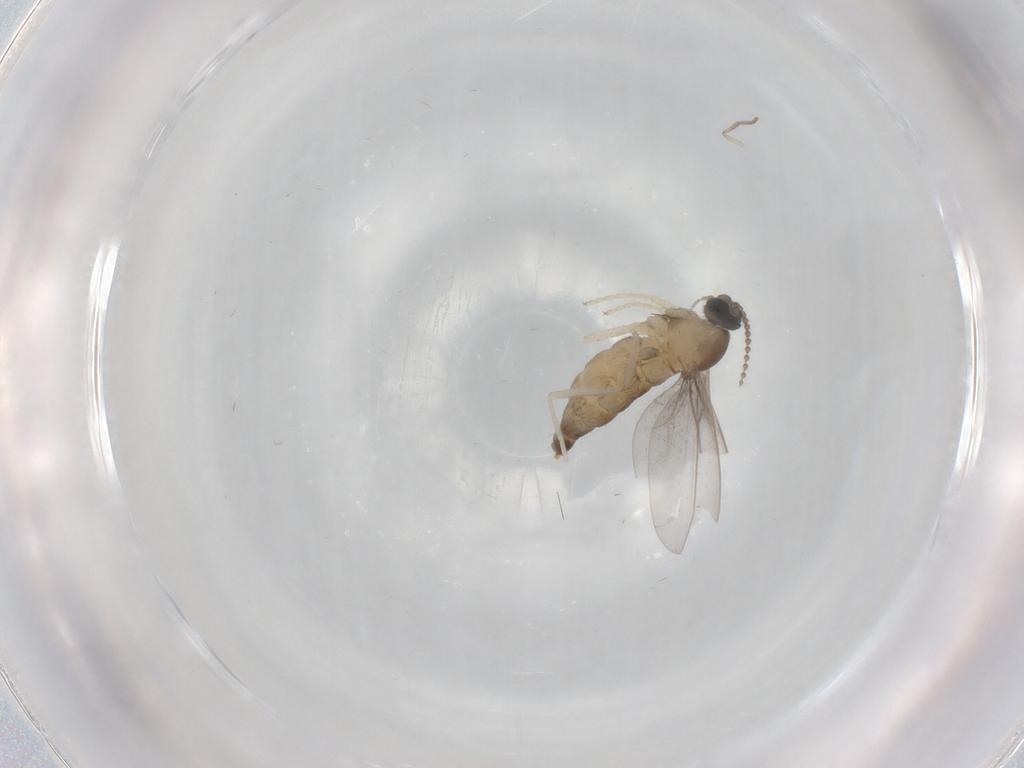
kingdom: Animalia
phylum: Arthropoda
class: Insecta
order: Diptera
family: Cecidomyiidae
